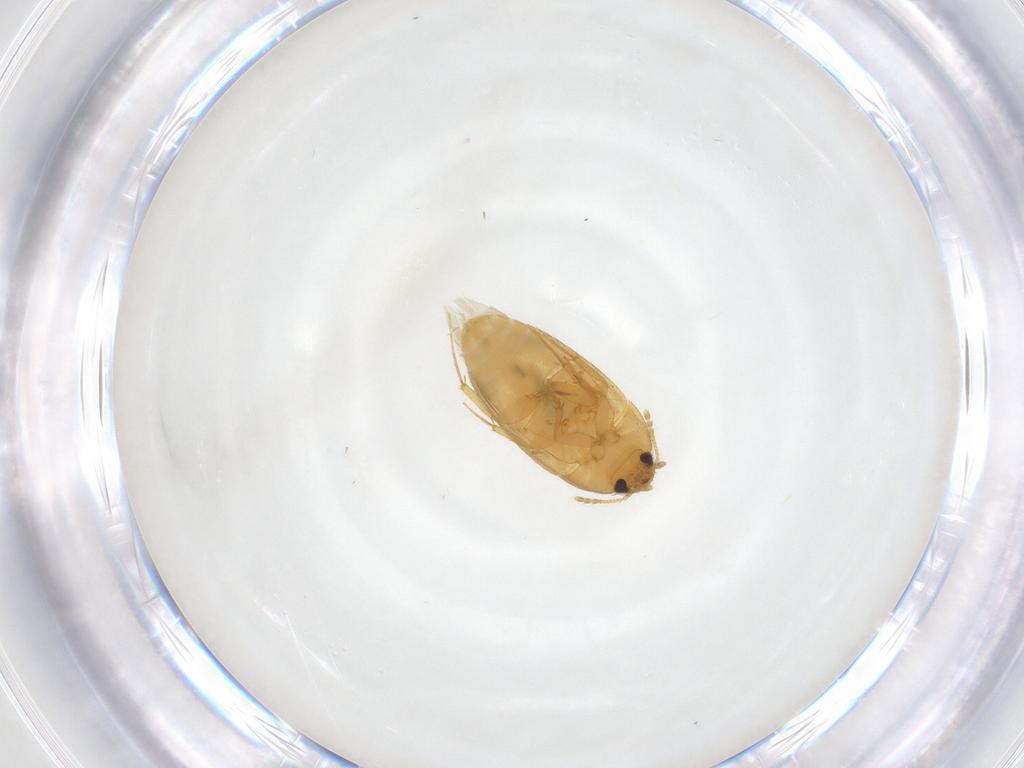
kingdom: Animalia
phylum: Arthropoda
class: Insecta
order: Coleoptera
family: Mycetophagidae
